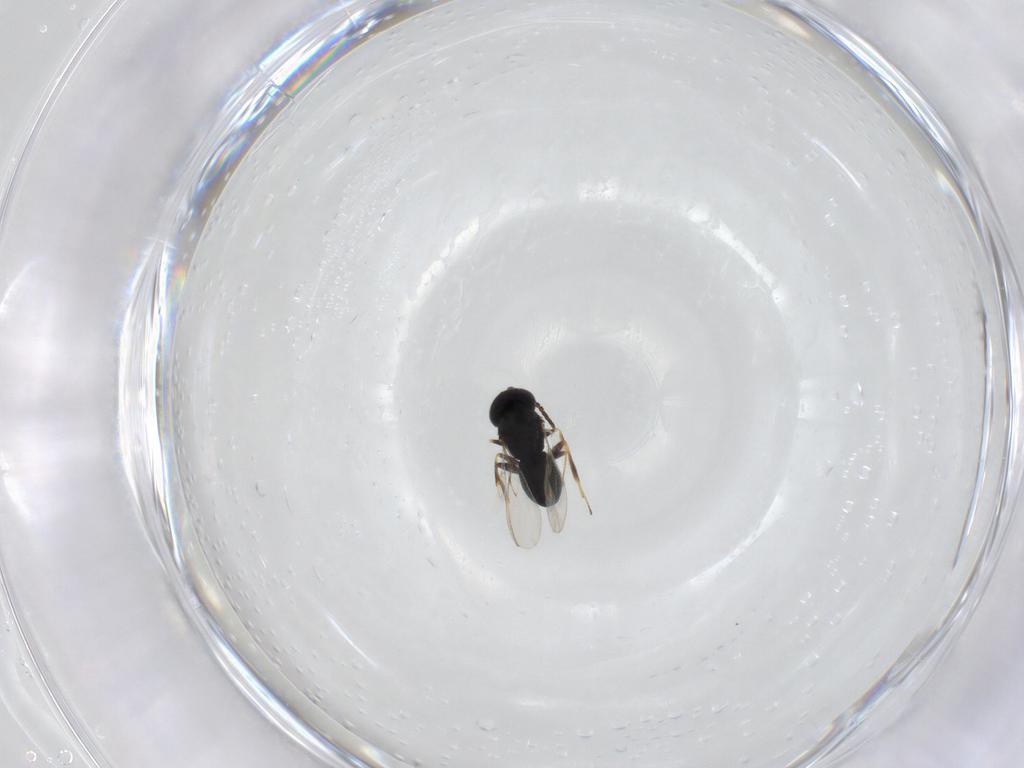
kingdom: Animalia
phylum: Arthropoda
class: Insecta
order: Hymenoptera
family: Scelionidae
